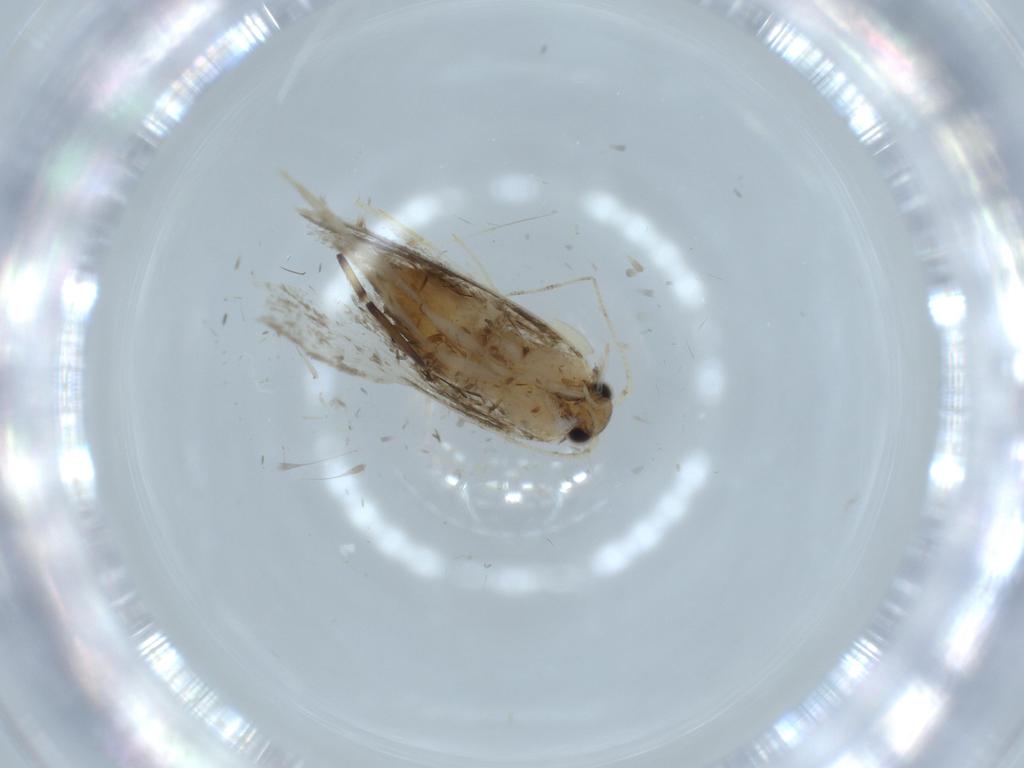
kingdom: Animalia
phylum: Arthropoda
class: Insecta
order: Lepidoptera
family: Tineidae
